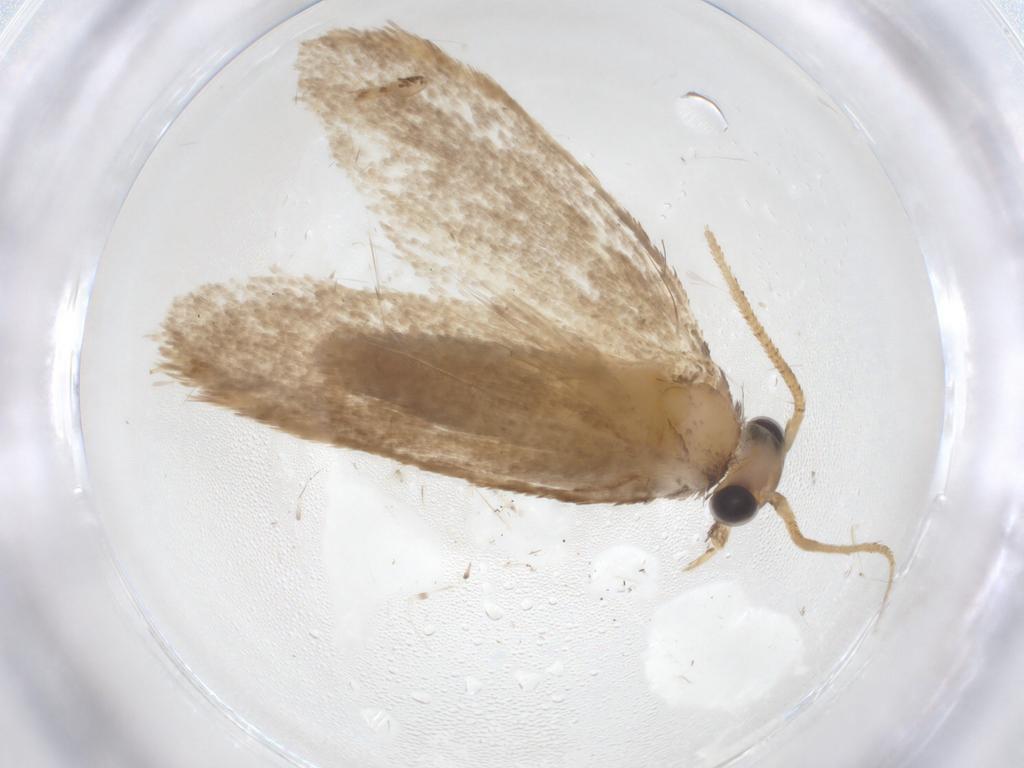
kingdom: Animalia
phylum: Arthropoda
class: Insecta
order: Lepidoptera
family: Tineidae
